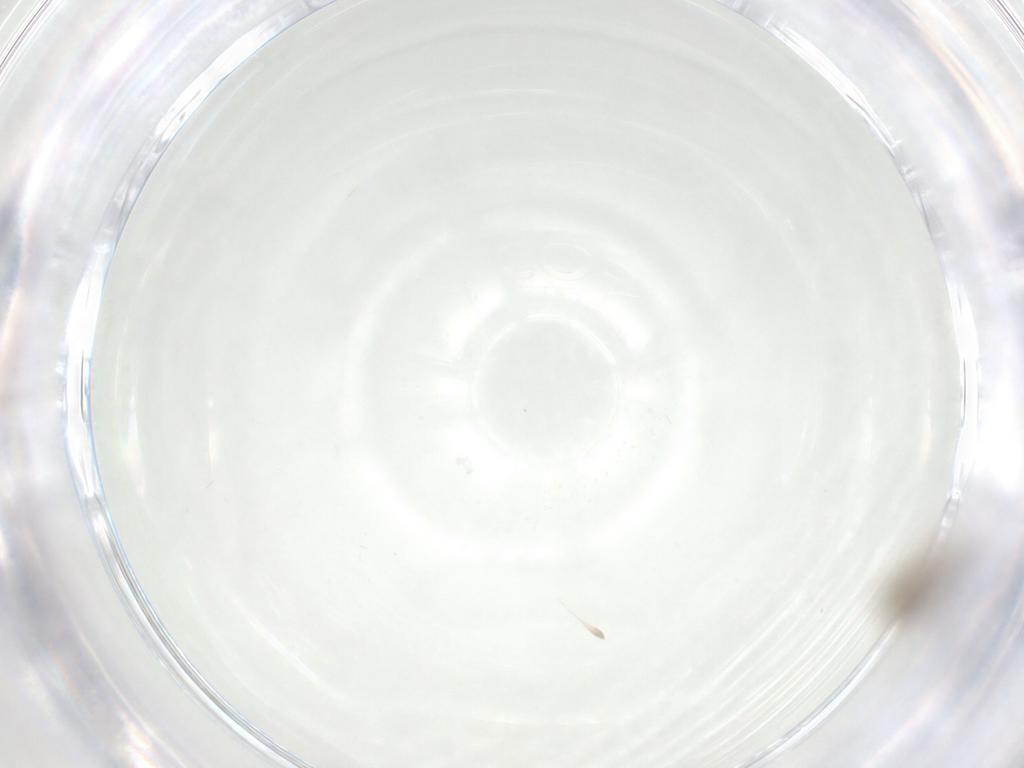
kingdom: Animalia
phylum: Arthropoda
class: Insecta
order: Diptera
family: Cecidomyiidae
